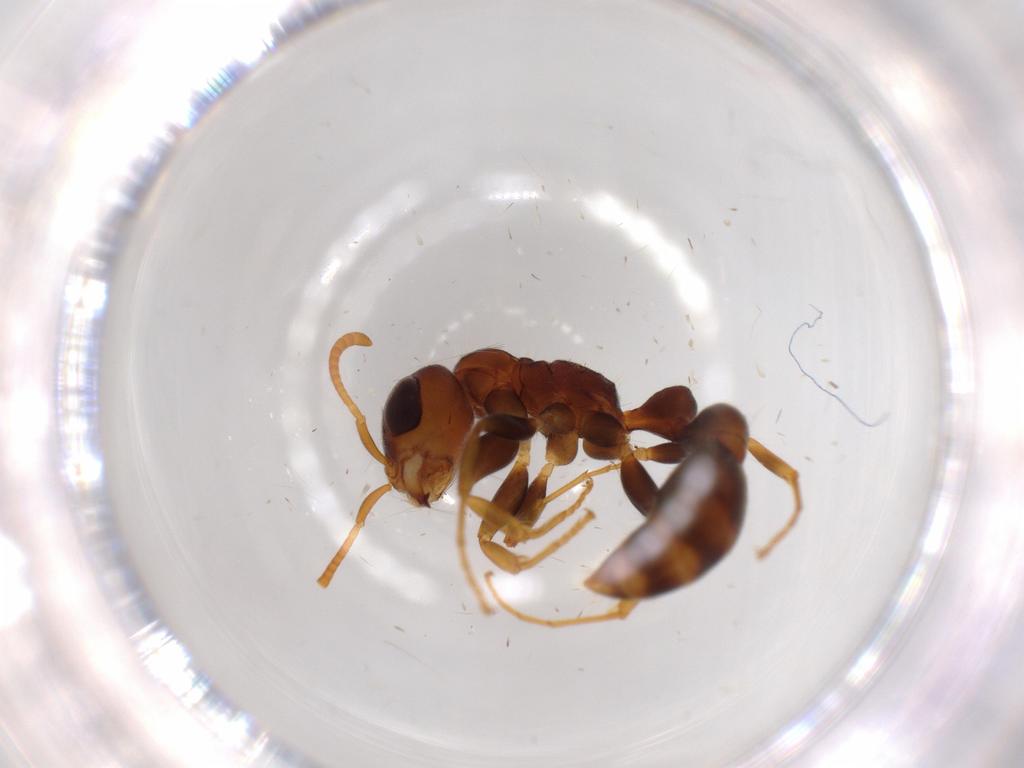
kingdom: Animalia
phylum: Arthropoda
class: Insecta
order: Hymenoptera
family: Formicidae
